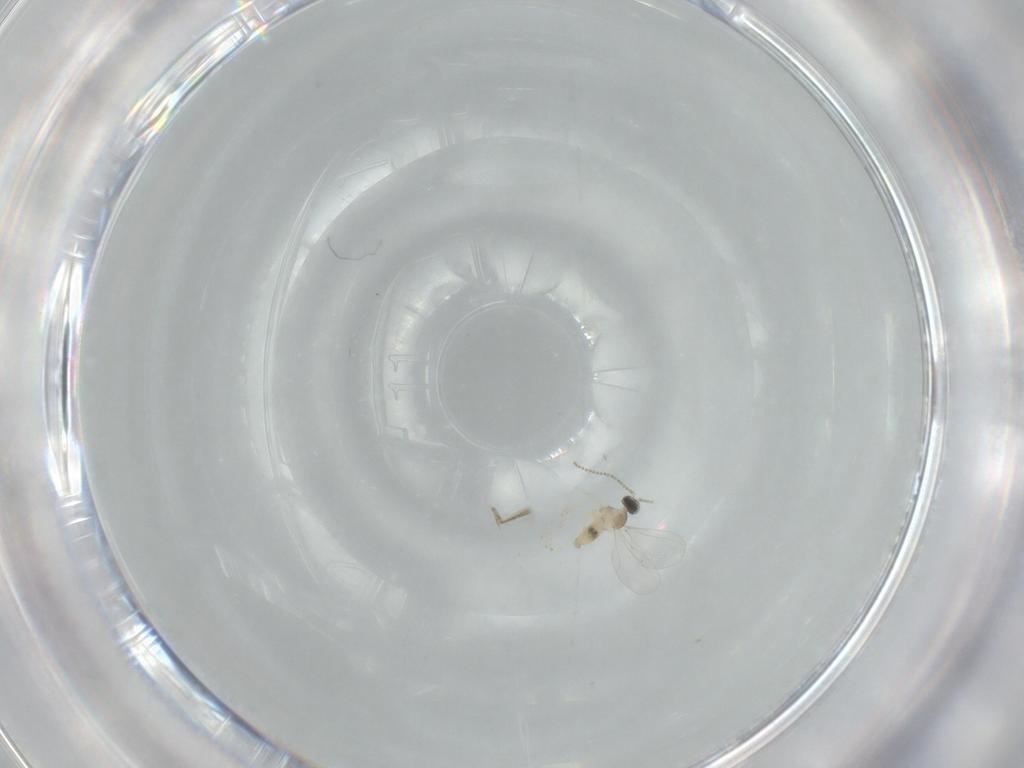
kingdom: Animalia
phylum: Arthropoda
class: Insecta
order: Diptera
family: Cecidomyiidae
